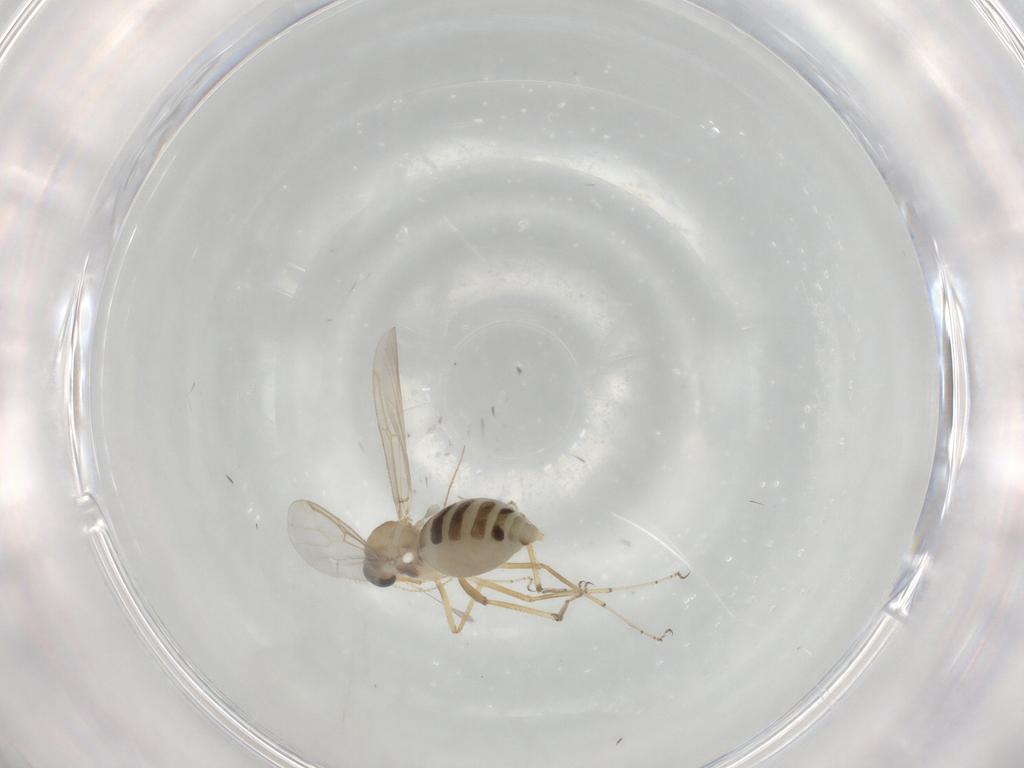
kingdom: Animalia
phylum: Arthropoda
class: Insecta
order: Diptera
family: Ceratopogonidae
